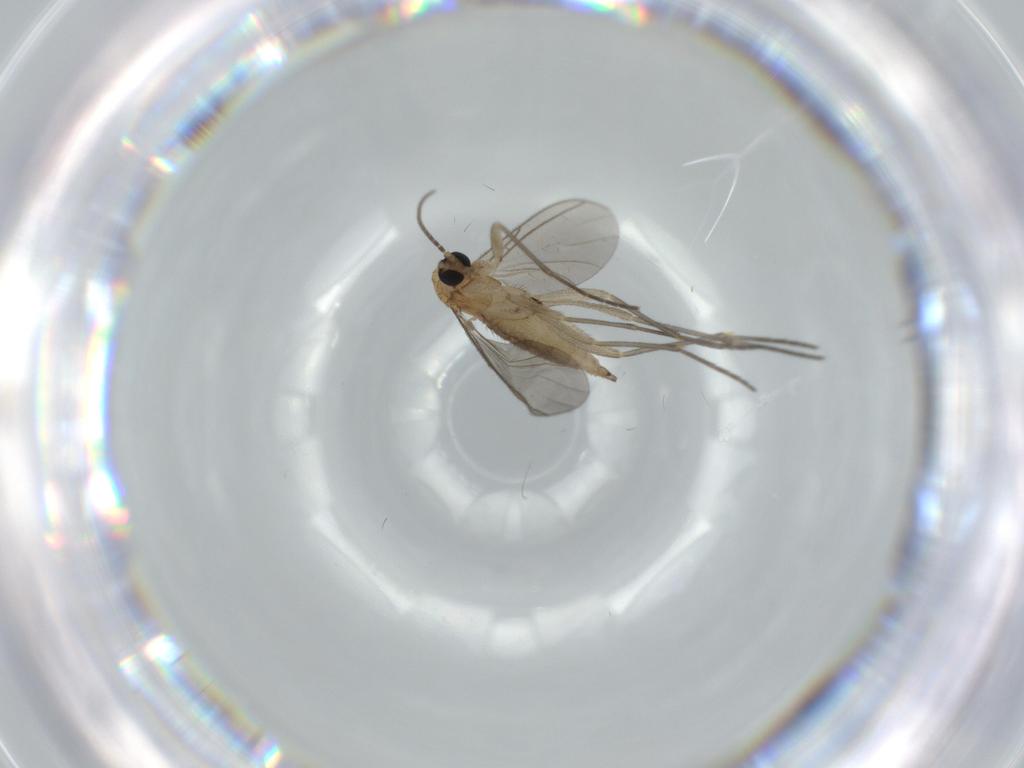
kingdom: Animalia
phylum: Arthropoda
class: Insecta
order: Diptera
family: Sciaridae
